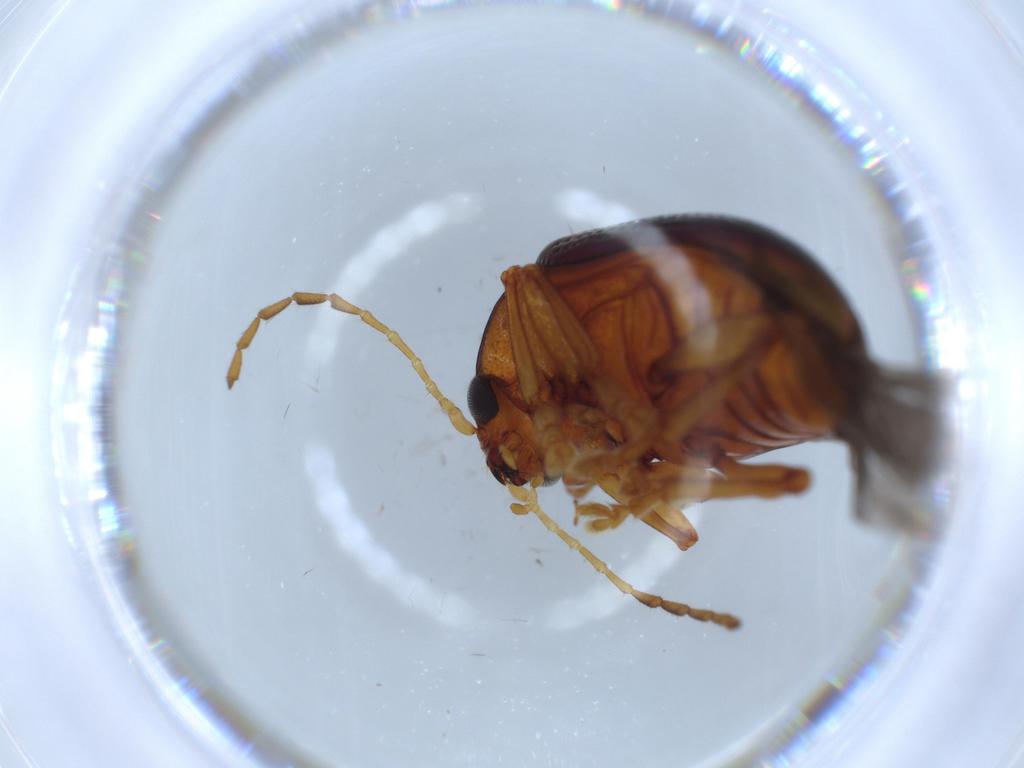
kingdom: Animalia
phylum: Arthropoda
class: Insecta
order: Coleoptera
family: Chrysomelidae
